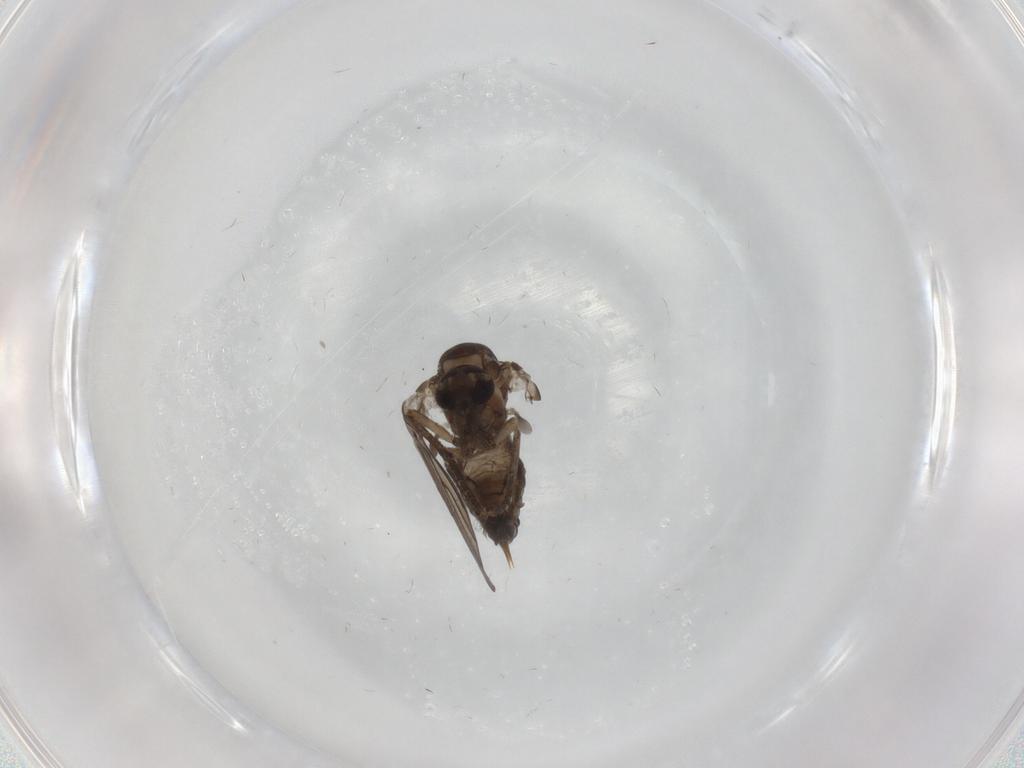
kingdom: Animalia
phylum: Arthropoda
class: Insecta
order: Diptera
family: Psychodidae
